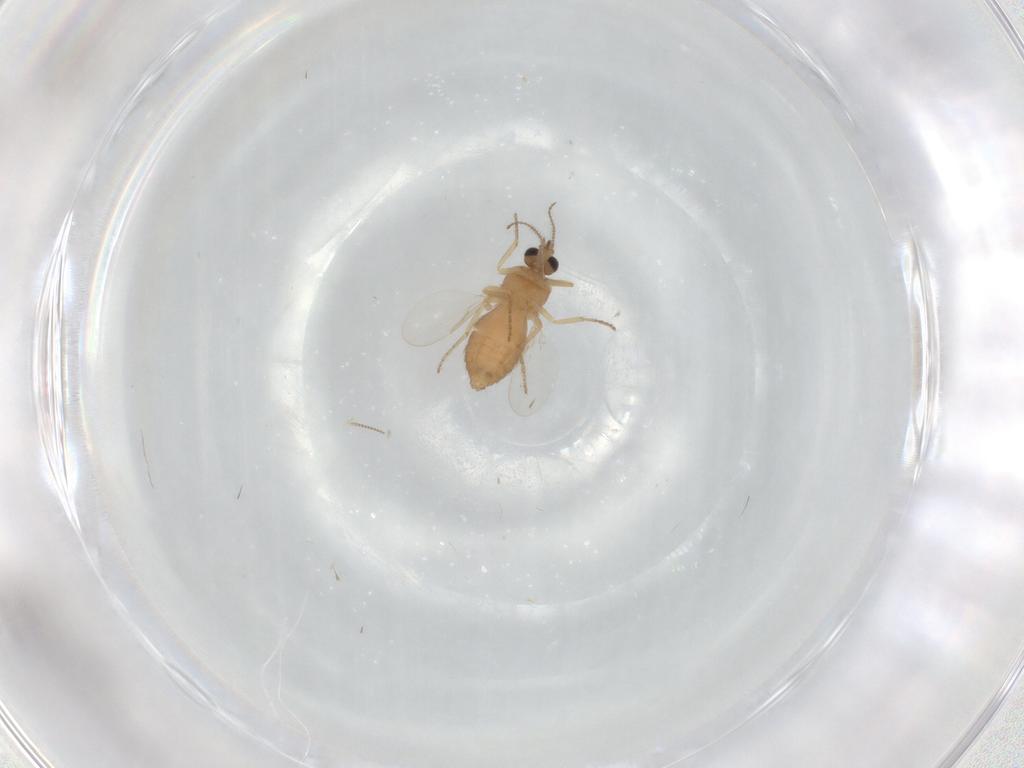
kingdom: Animalia
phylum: Arthropoda
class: Insecta
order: Diptera
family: Ceratopogonidae
